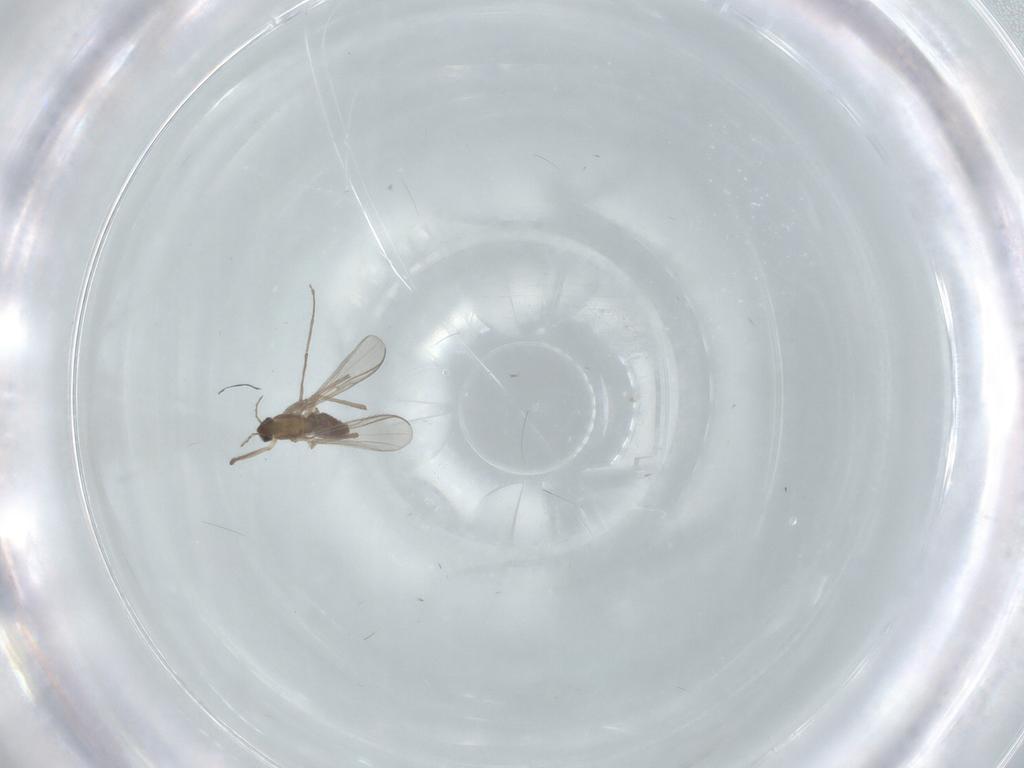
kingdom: Animalia
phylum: Arthropoda
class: Insecta
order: Diptera
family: Chironomidae
